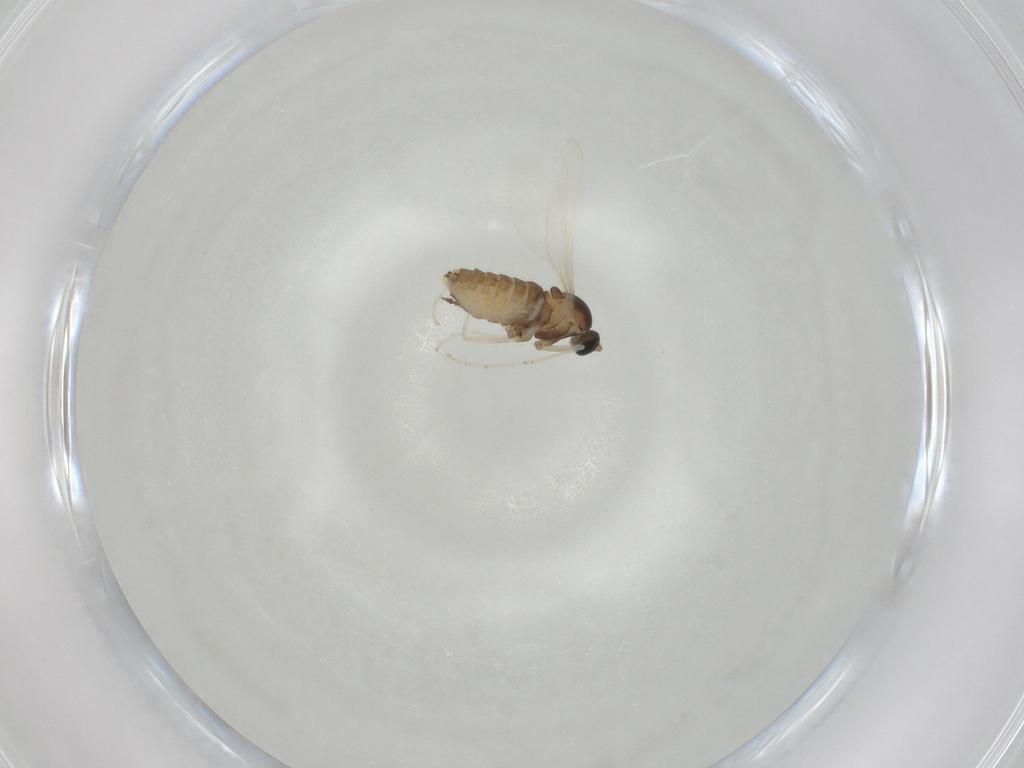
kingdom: Animalia
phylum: Arthropoda
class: Insecta
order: Diptera
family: Cecidomyiidae
